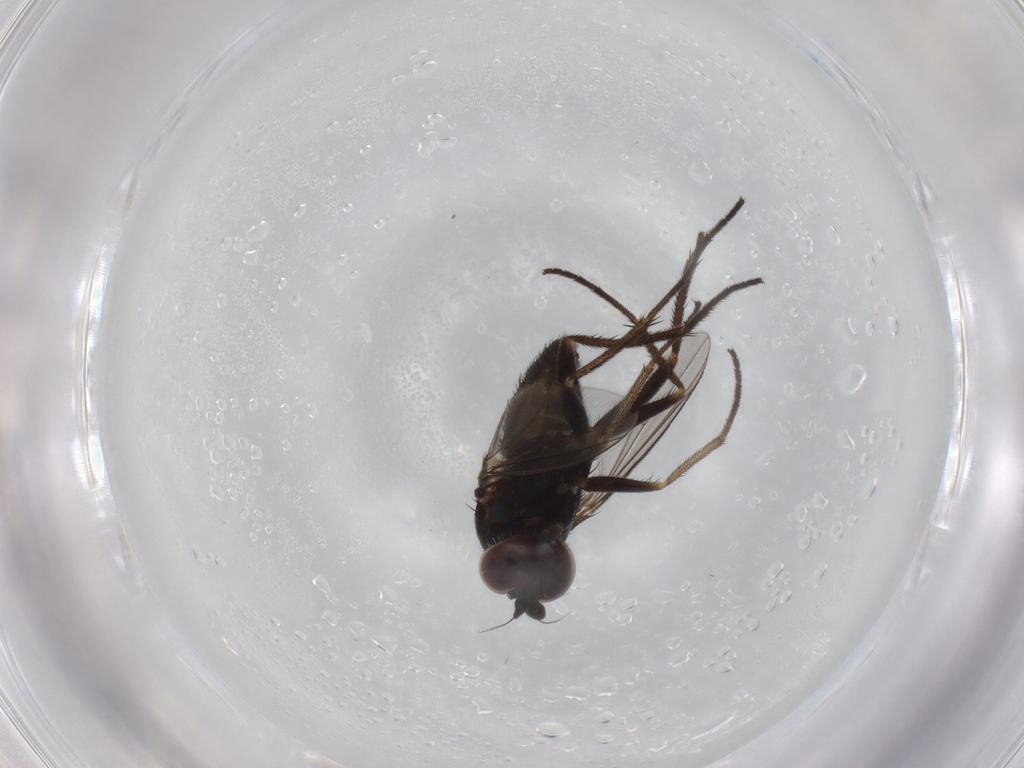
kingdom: Animalia
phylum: Arthropoda
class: Insecta
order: Diptera
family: Dolichopodidae
